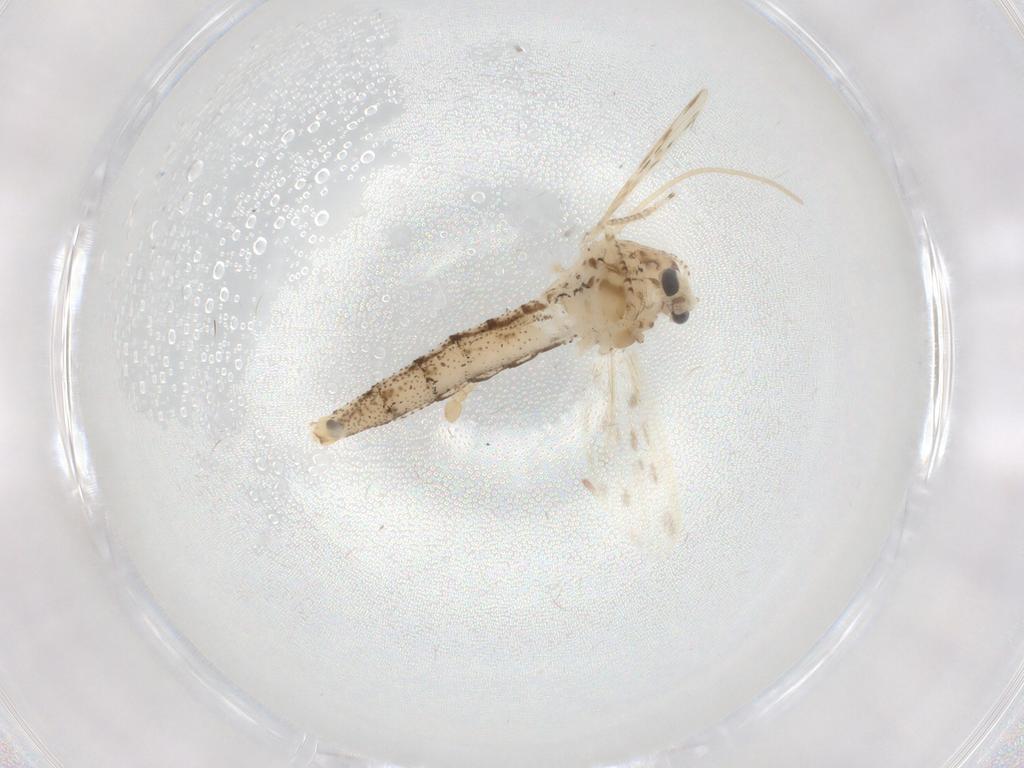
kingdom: Animalia
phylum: Arthropoda
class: Insecta
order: Diptera
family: Chaoboridae
